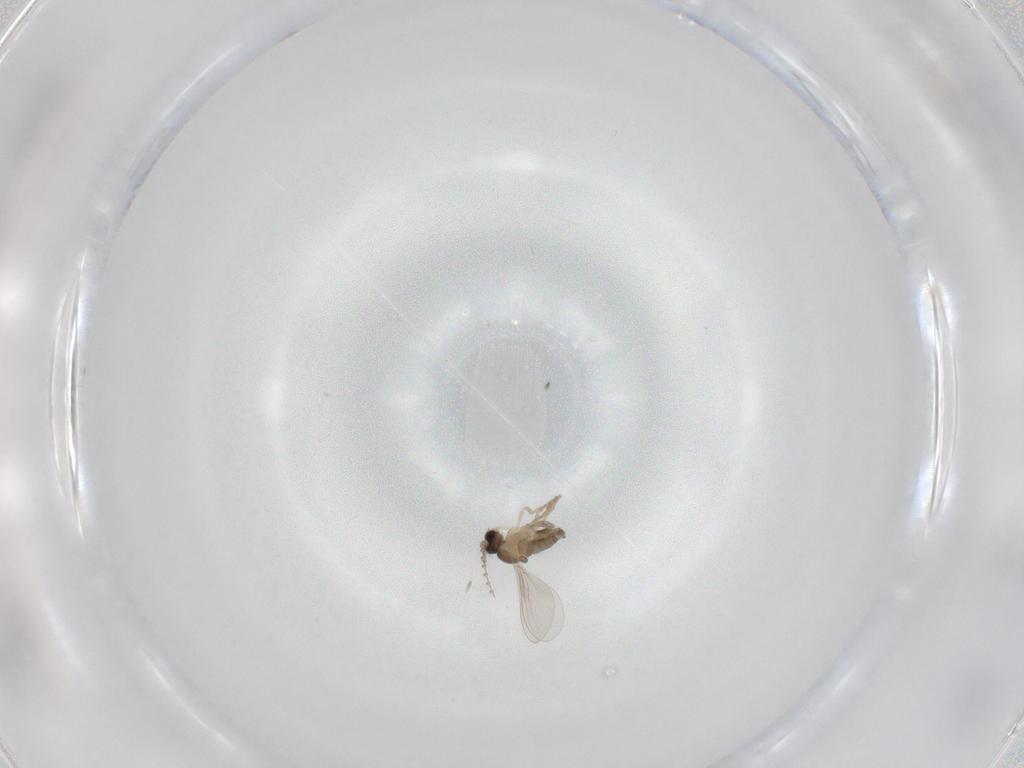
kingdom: Animalia
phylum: Arthropoda
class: Insecta
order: Diptera
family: Cecidomyiidae
